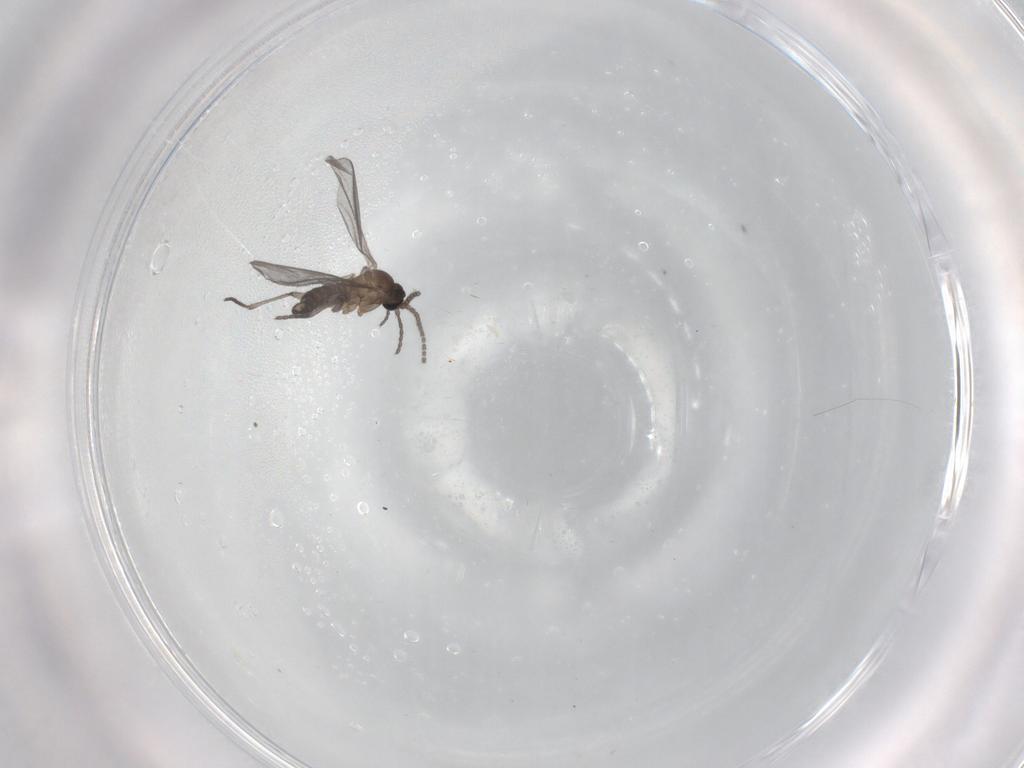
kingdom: Animalia
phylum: Arthropoda
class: Insecta
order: Diptera
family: Sciaridae
